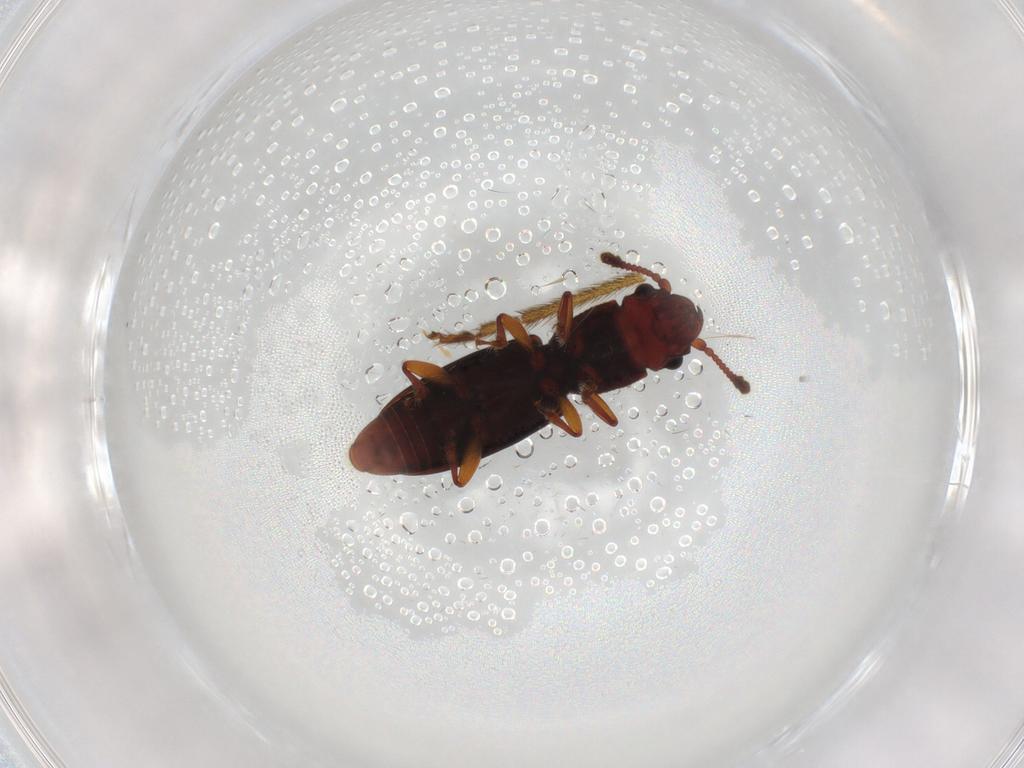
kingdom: Animalia
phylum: Arthropoda
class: Insecta
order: Coleoptera
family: Monotomidae
